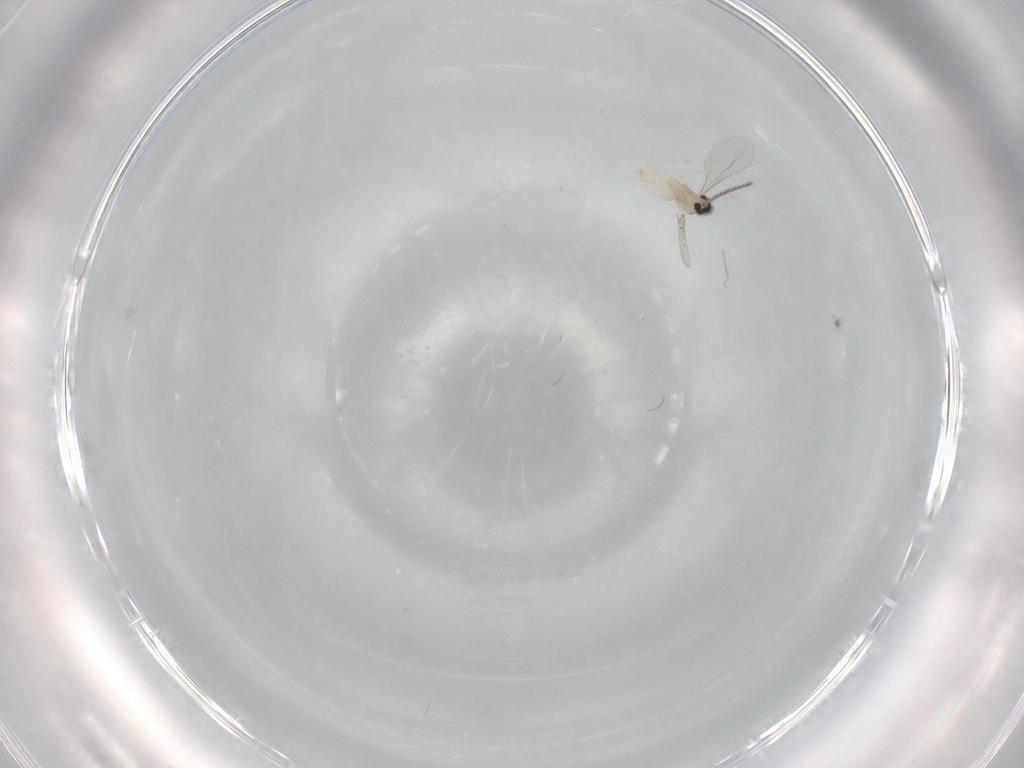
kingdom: Animalia
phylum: Arthropoda
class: Insecta
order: Diptera
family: Cecidomyiidae
